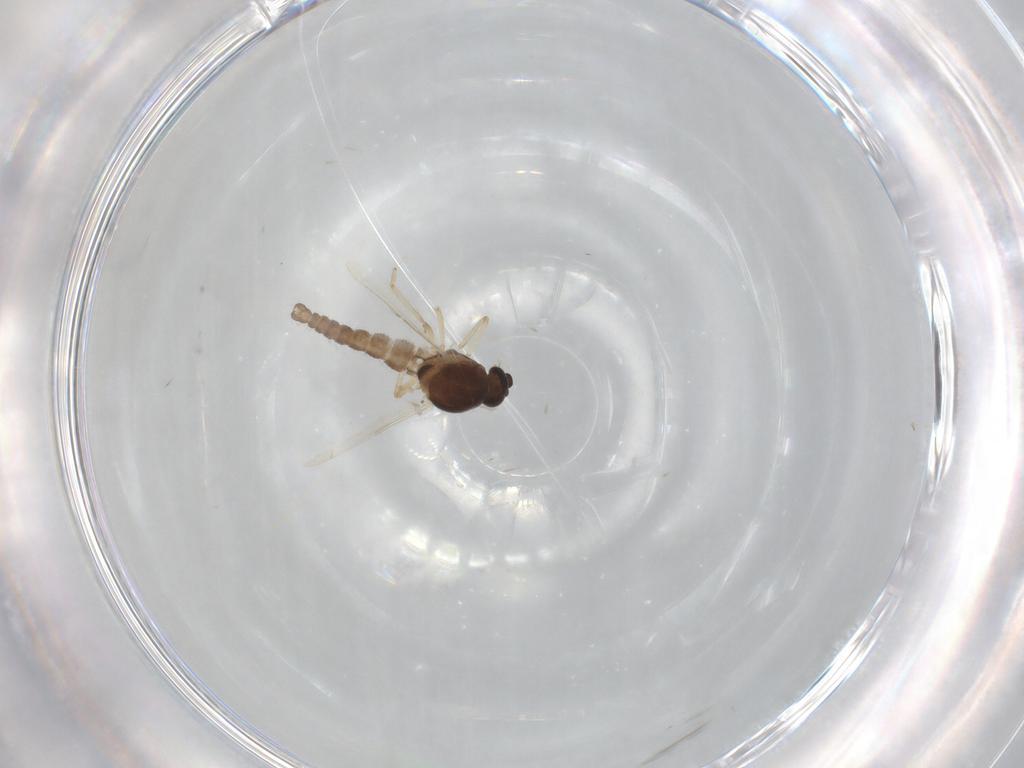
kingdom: Animalia
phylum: Arthropoda
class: Insecta
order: Diptera
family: Ceratopogonidae
